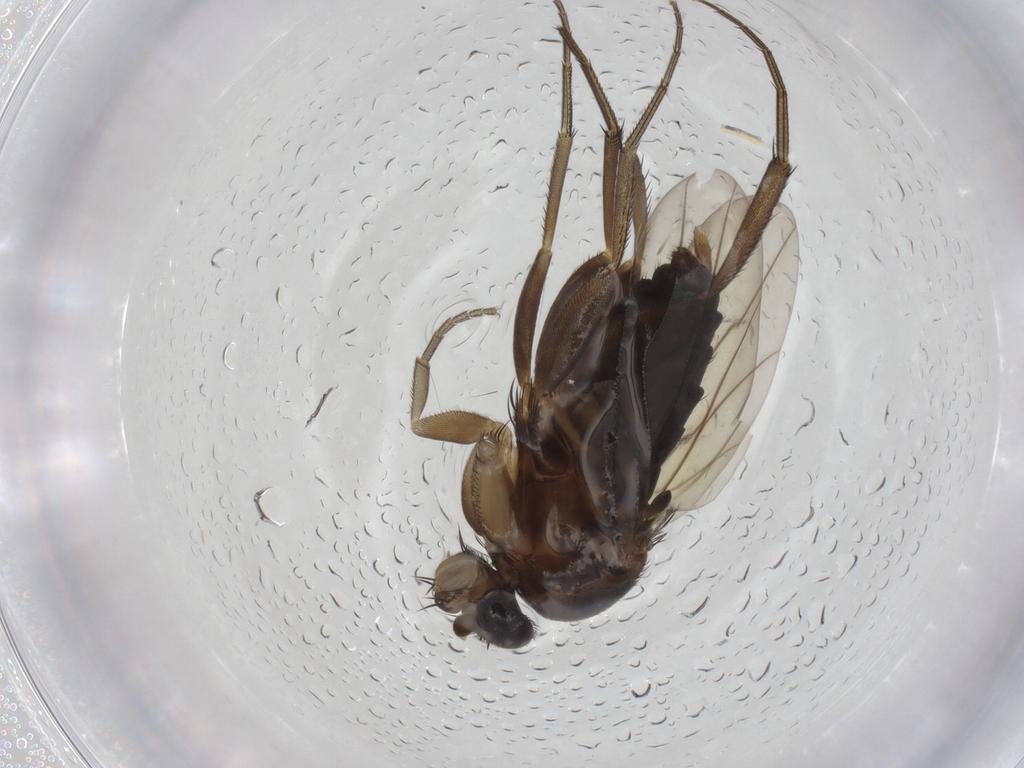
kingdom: Animalia
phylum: Arthropoda
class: Insecta
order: Diptera
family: Phoridae
